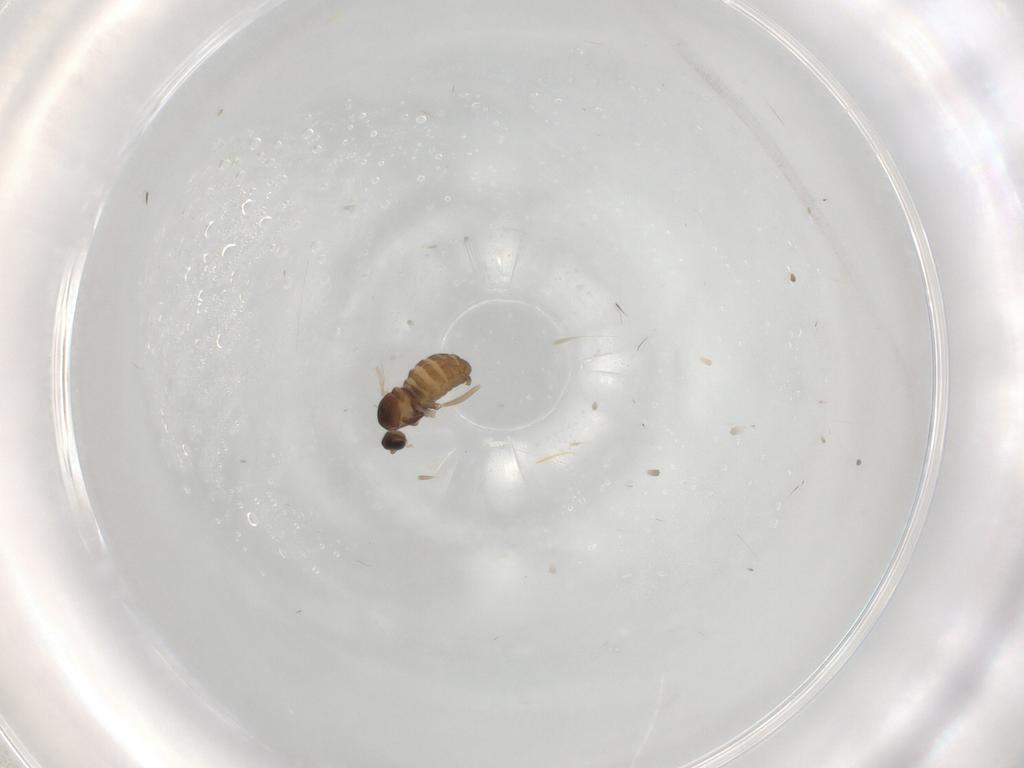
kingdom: Animalia
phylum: Arthropoda
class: Insecta
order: Diptera
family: Cecidomyiidae
